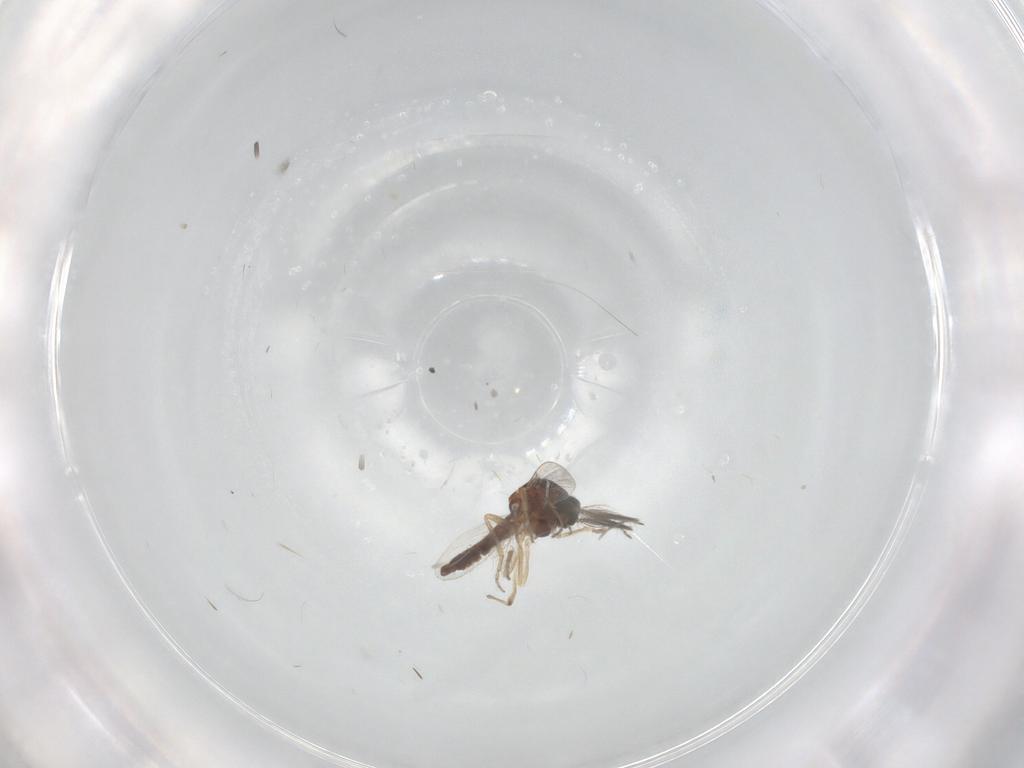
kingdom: Animalia
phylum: Arthropoda
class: Insecta
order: Diptera
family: Ceratopogonidae
